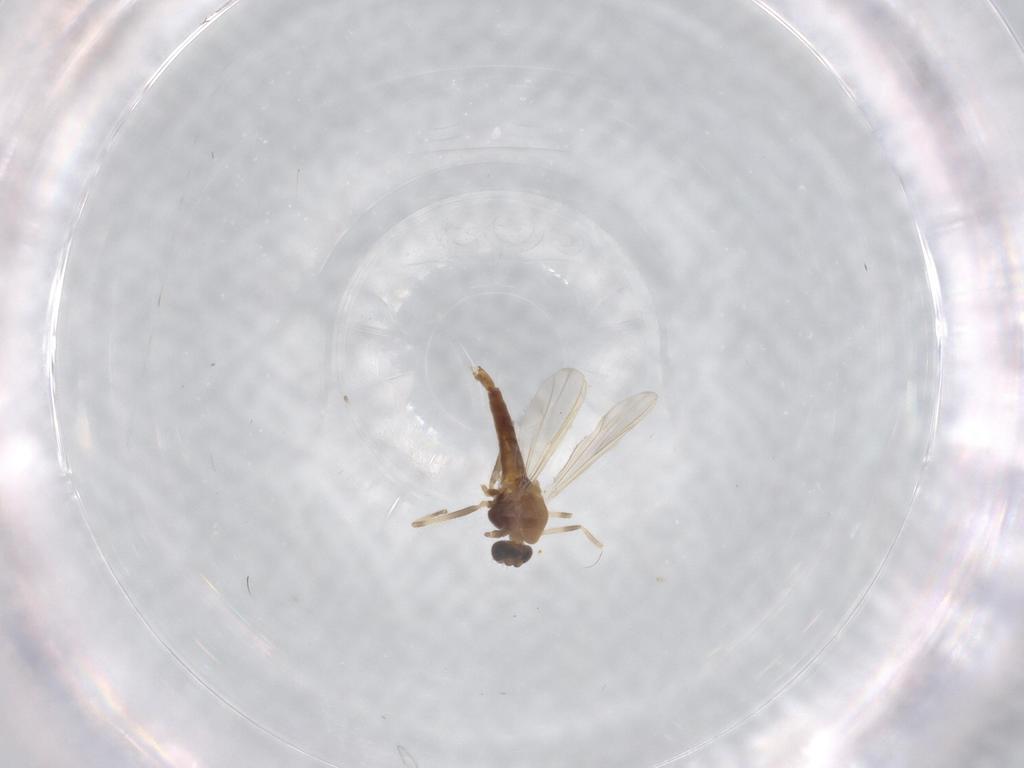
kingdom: Animalia
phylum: Arthropoda
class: Insecta
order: Diptera
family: Chironomidae
